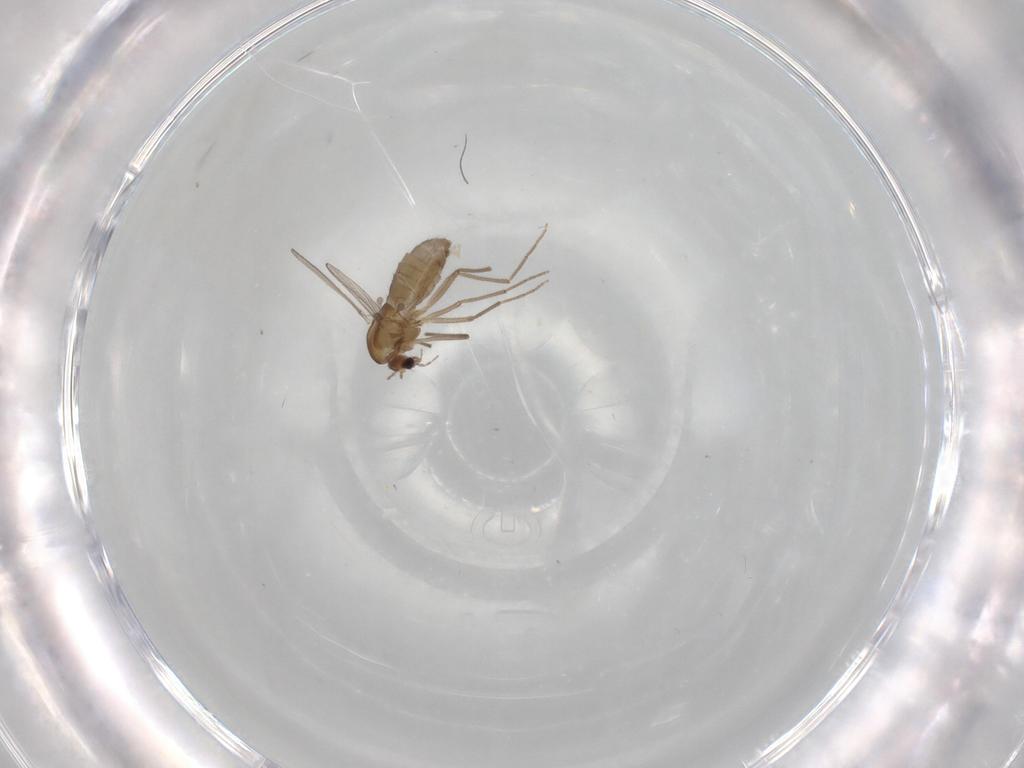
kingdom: Animalia
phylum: Arthropoda
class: Insecta
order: Diptera
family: Chironomidae
